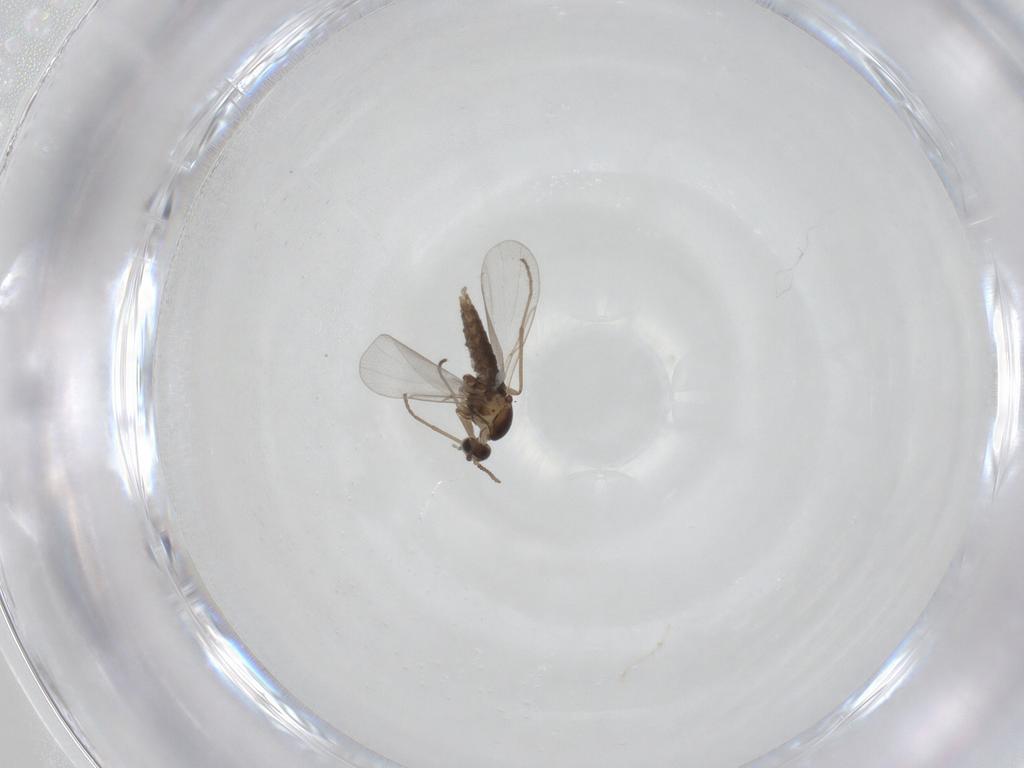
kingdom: Animalia
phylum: Arthropoda
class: Insecta
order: Diptera
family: Cecidomyiidae
